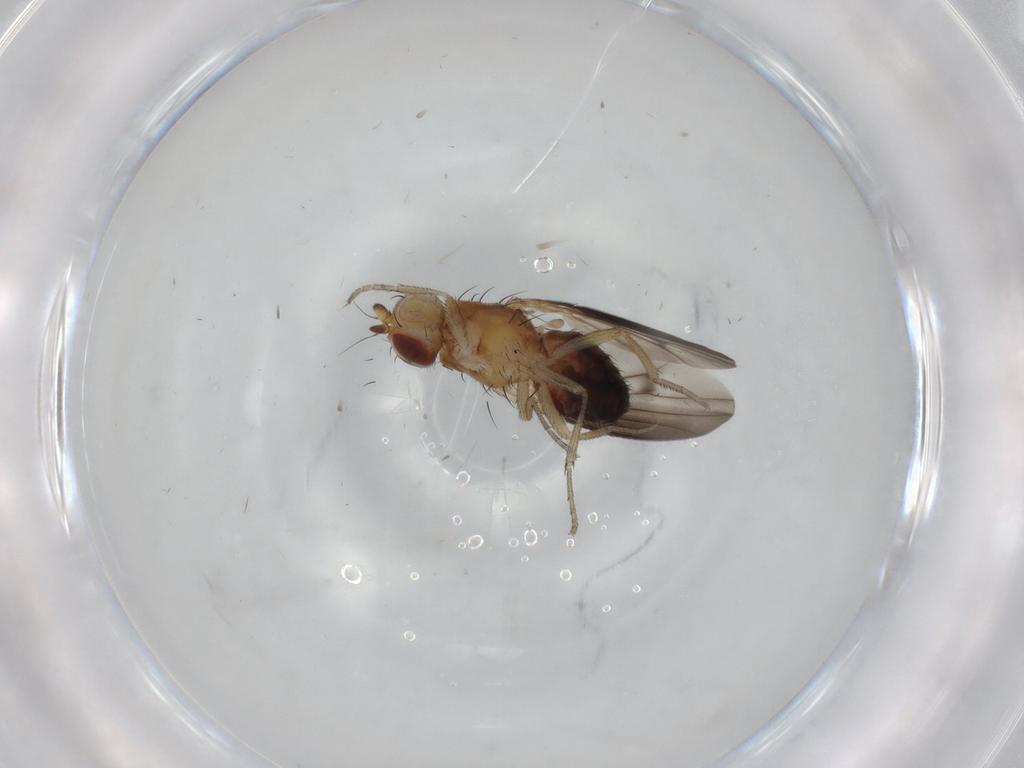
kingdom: Animalia
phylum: Arthropoda
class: Insecta
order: Diptera
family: Heleomyzidae
